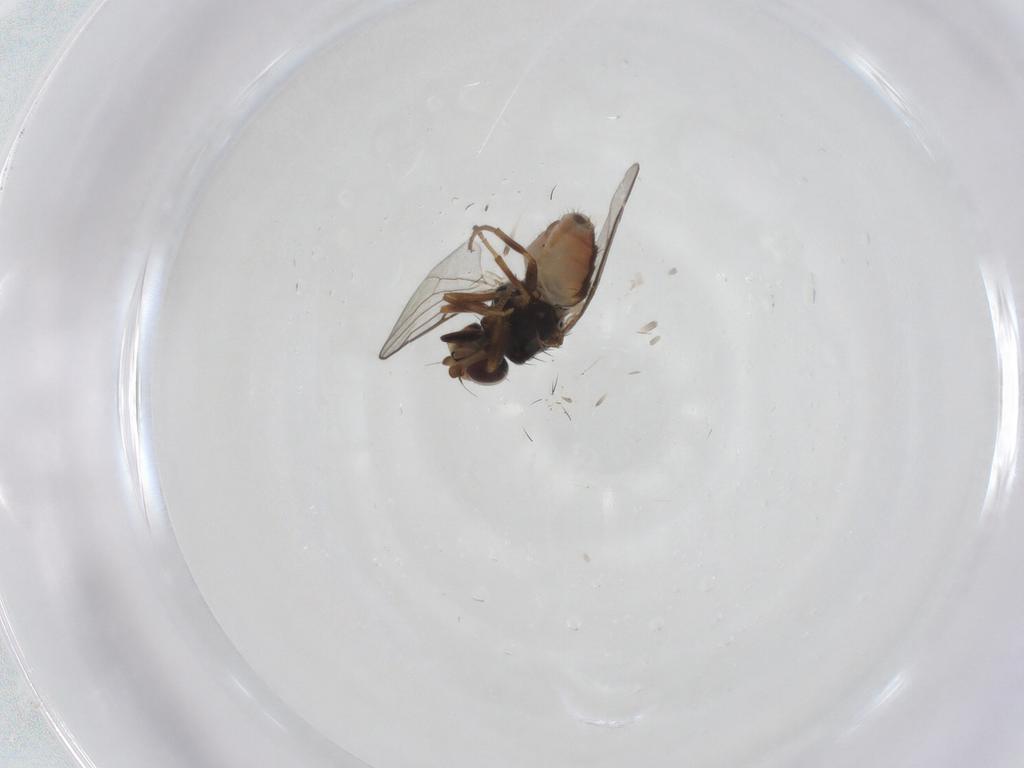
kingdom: Animalia
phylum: Arthropoda
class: Insecta
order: Diptera
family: Chloropidae
